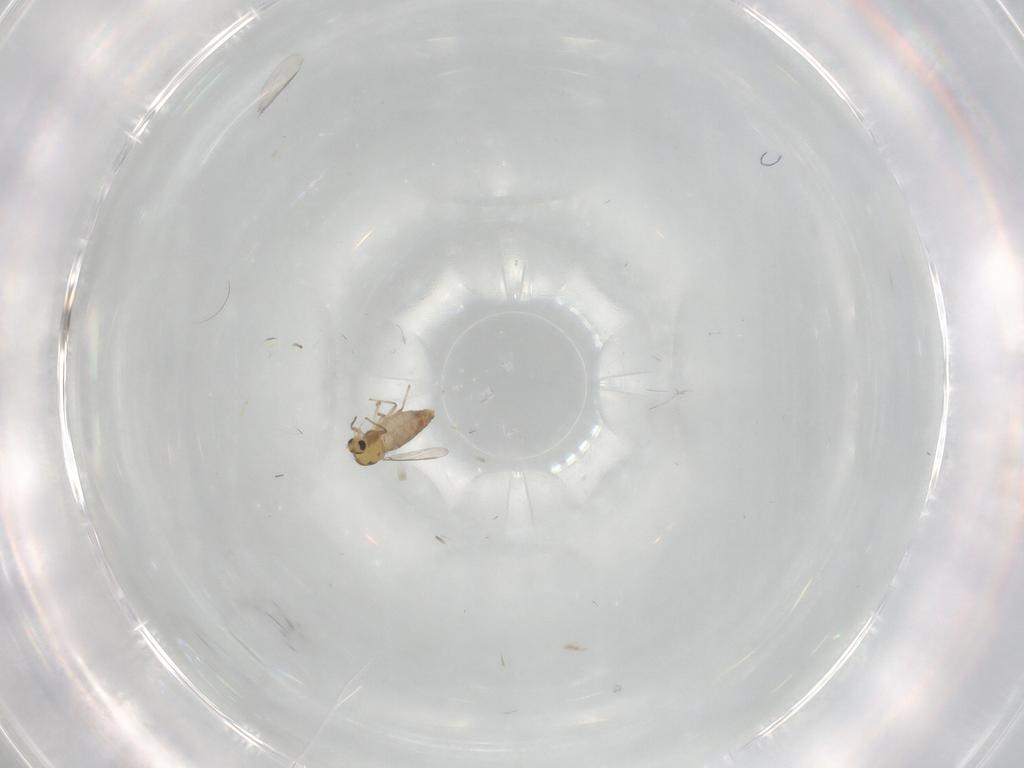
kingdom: Animalia
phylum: Arthropoda
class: Insecta
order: Diptera
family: Chironomidae
